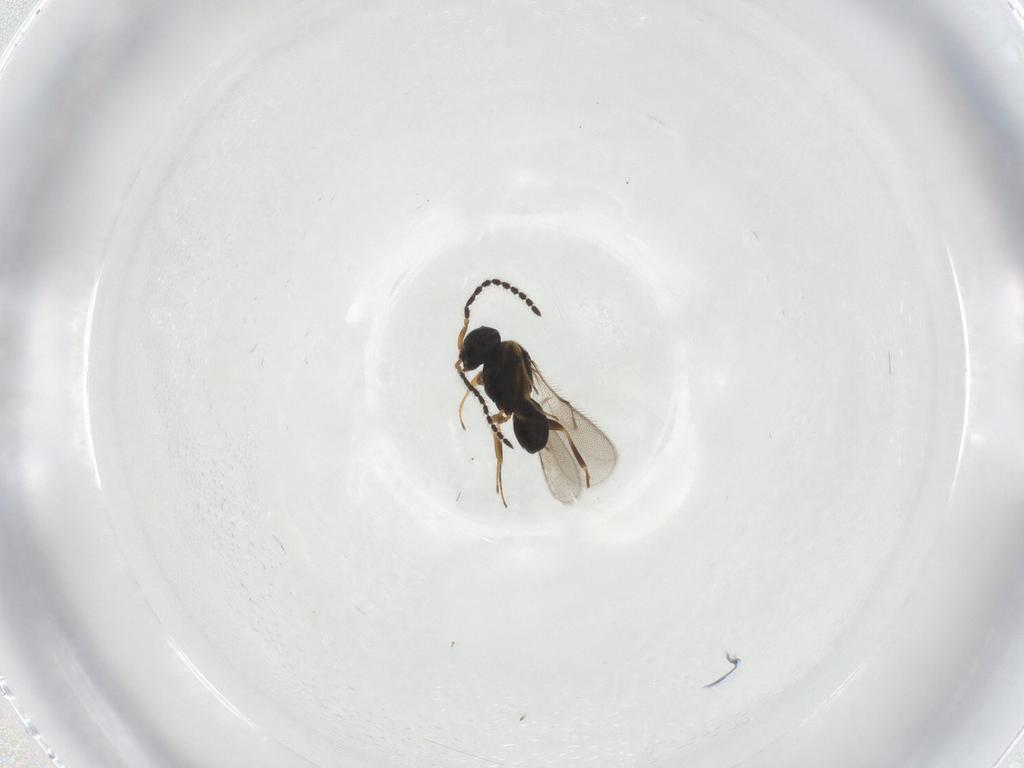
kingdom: Animalia
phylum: Arthropoda
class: Insecta
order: Hymenoptera
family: Scelionidae
